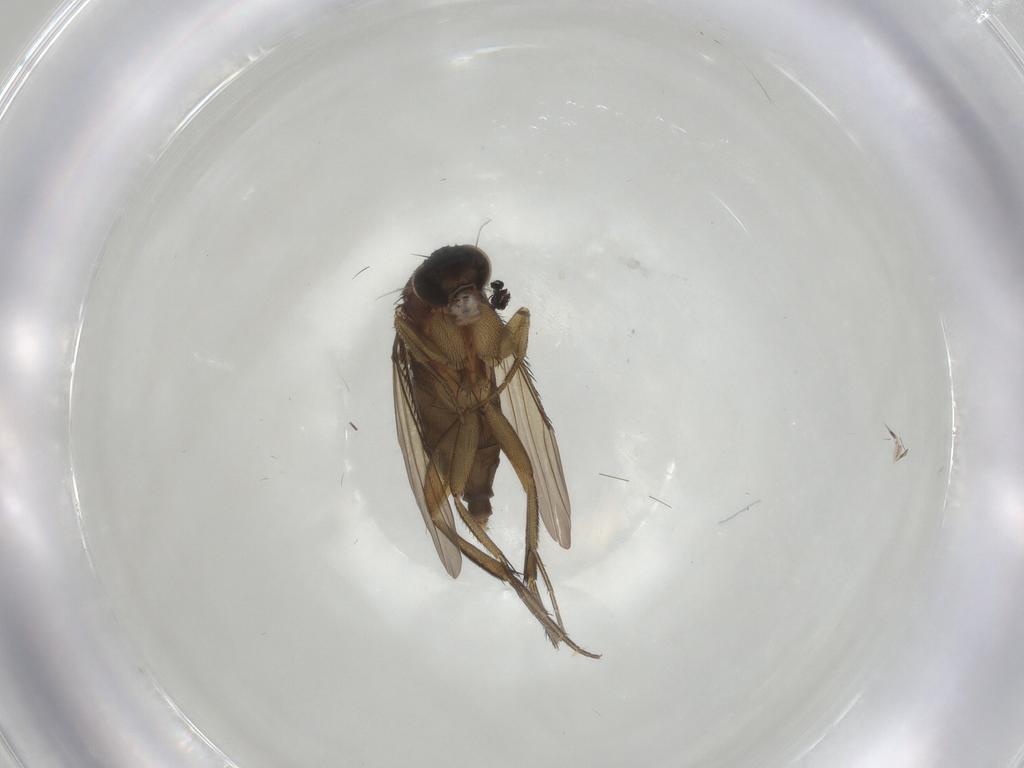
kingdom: Animalia
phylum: Arthropoda
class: Insecta
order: Diptera
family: Phoridae
